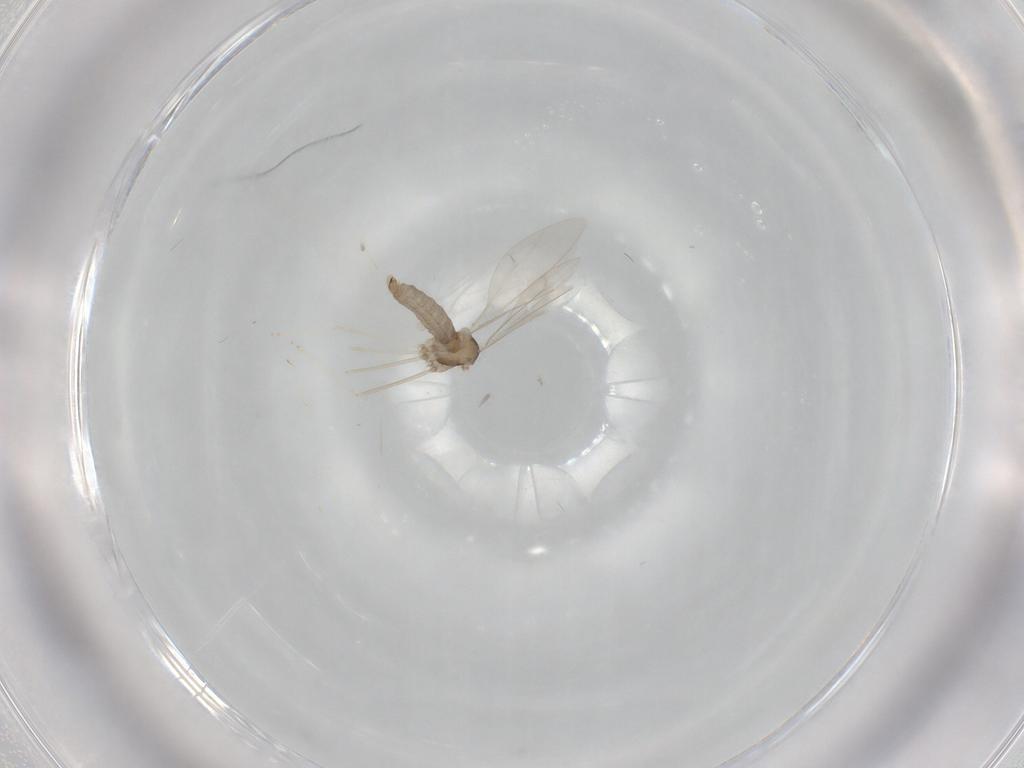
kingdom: Animalia
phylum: Arthropoda
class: Insecta
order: Diptera
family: Cecidomyiidae
